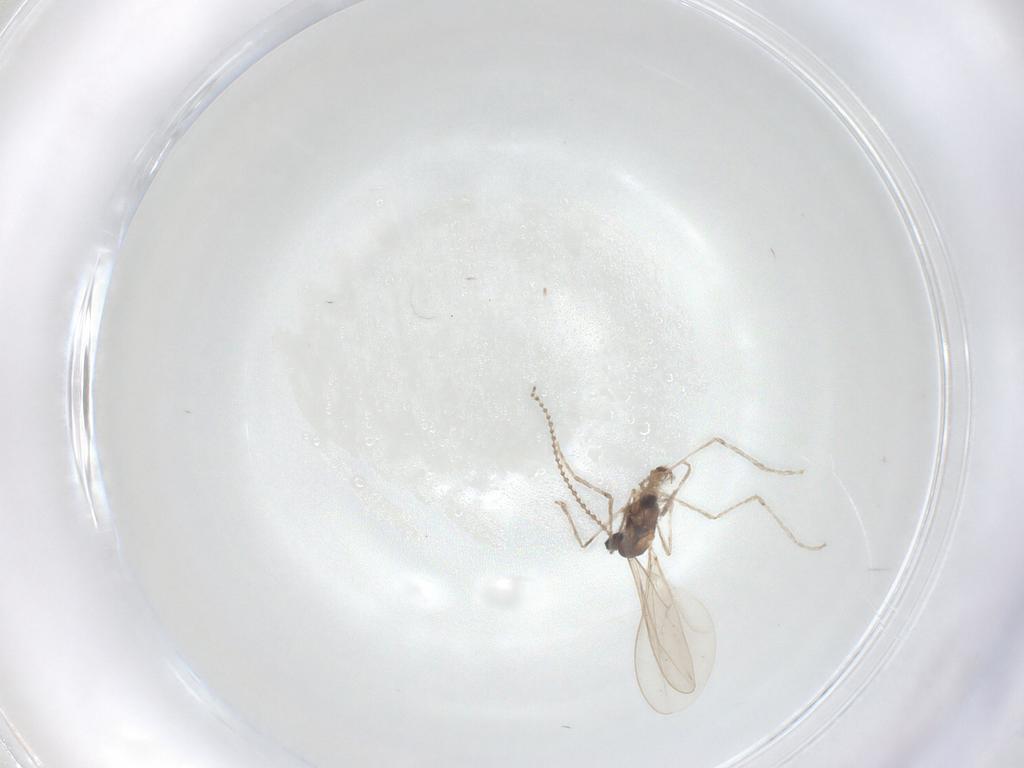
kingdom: Animalia
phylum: Arthropoda
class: Insecta
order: Diptera
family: Cecidomyiidae
